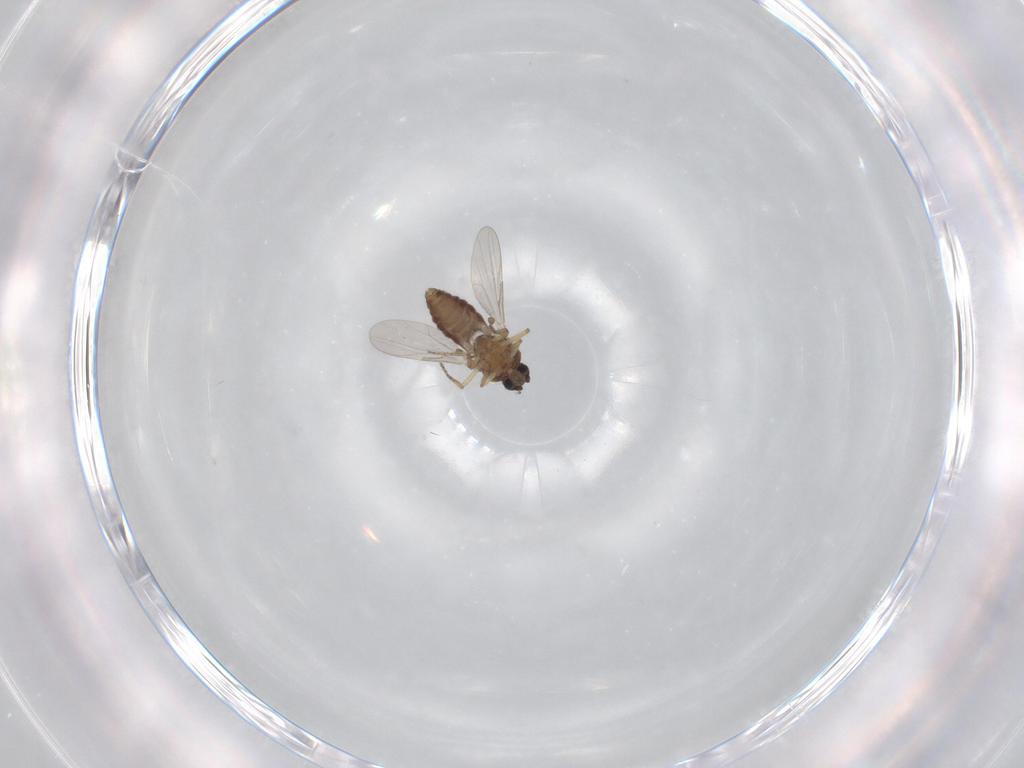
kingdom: Animalia
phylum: Arthropoda
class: Insecta
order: Diptera
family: Ceratopogonidae
